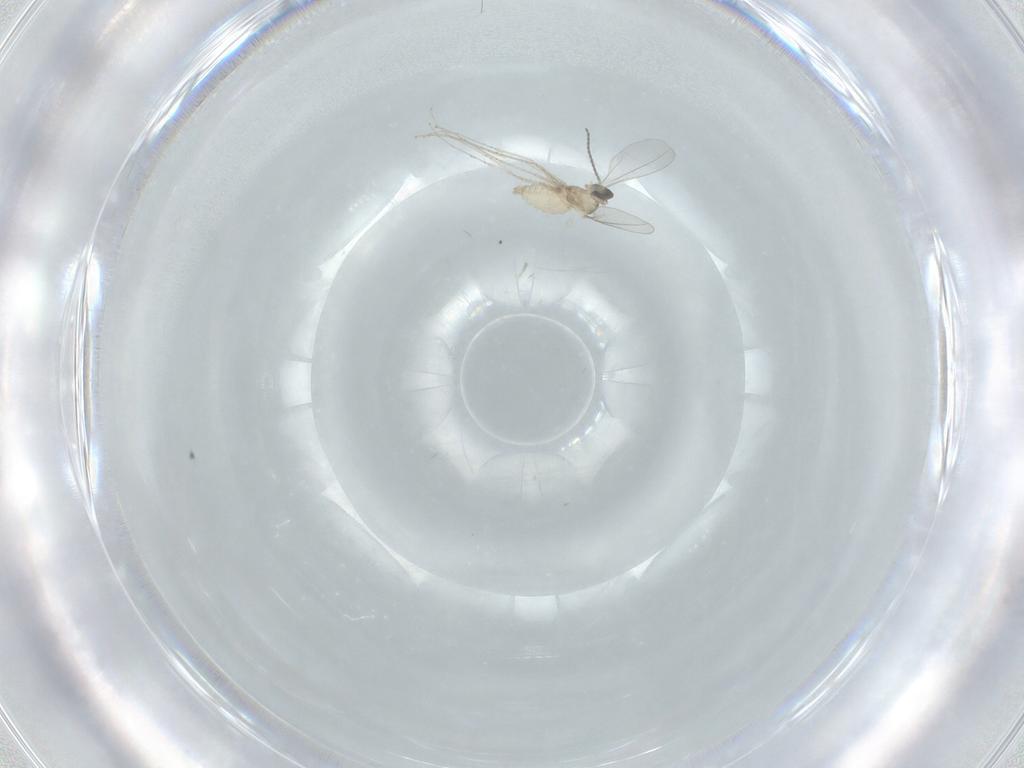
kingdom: Animalia
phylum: Arthropoda
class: Insecta
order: Diptera
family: Cecidomyiidae
